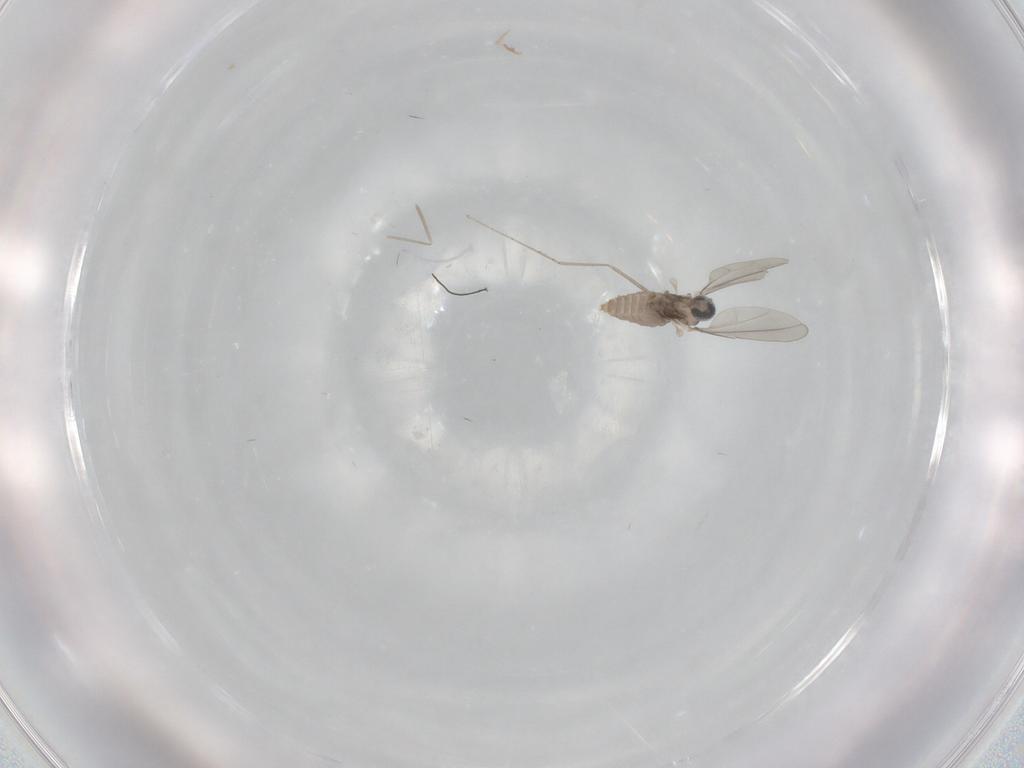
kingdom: Animalia
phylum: Arthropoda
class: Insecta
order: Diptera
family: Cecidomyiidae
